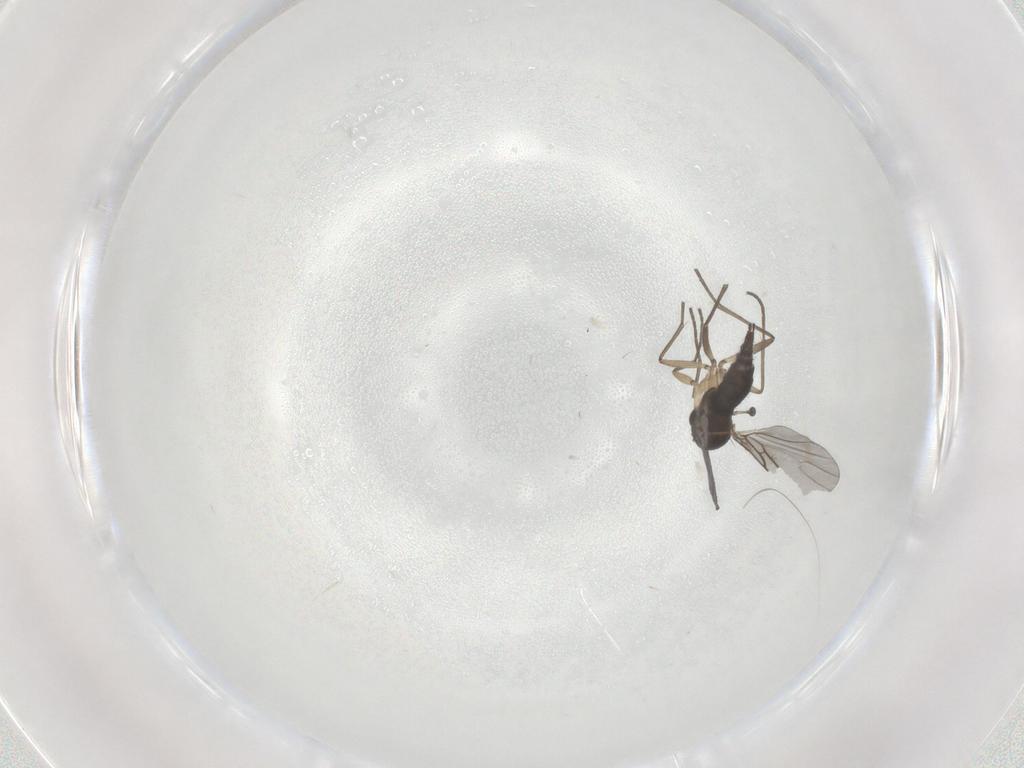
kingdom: Animalia
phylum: Arthropoda
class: Insecta
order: Diptera
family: Sciaridae
